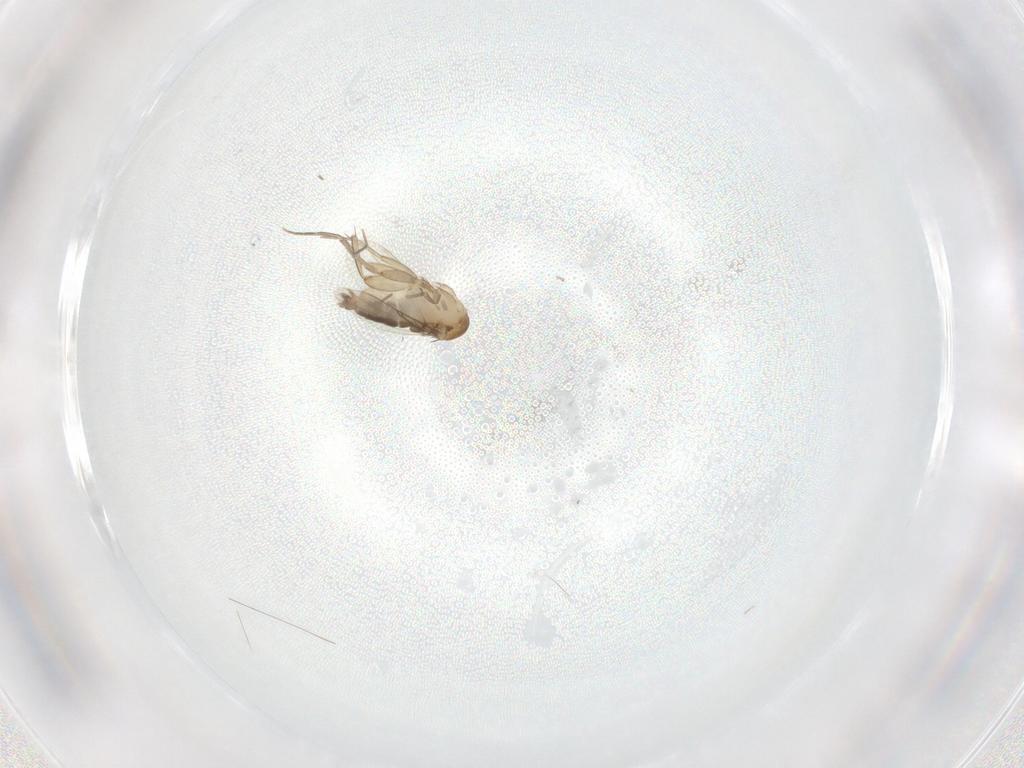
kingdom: Animalia
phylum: Arthropoda
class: Insecta
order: Diptera
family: Phoridae
